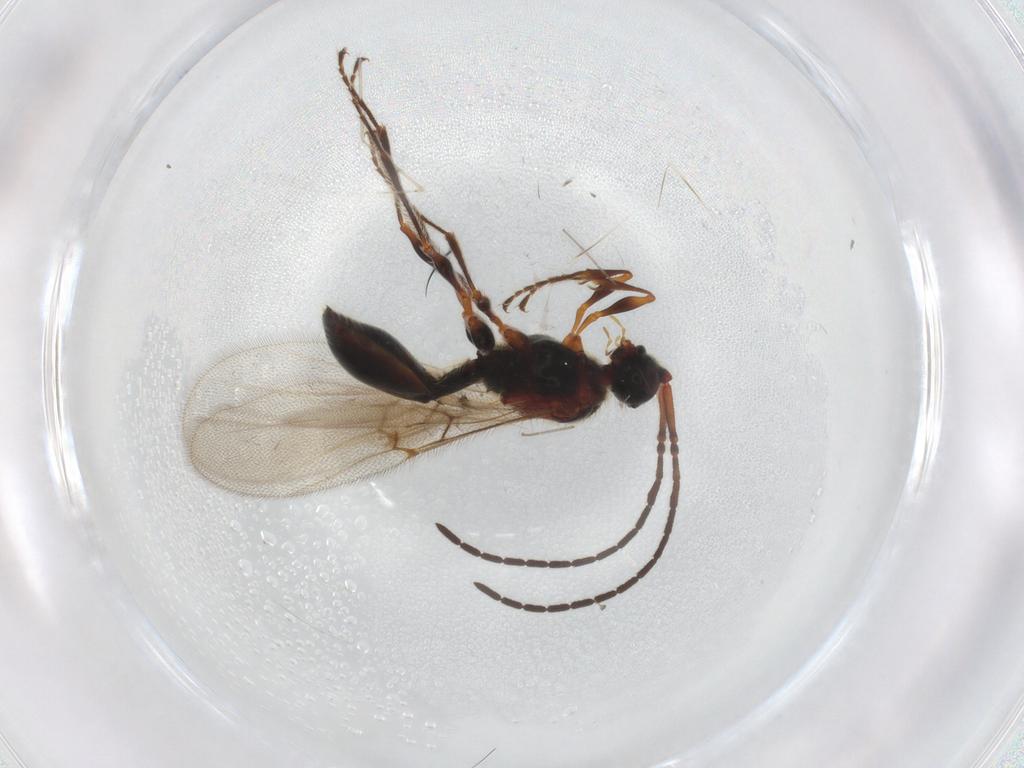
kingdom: Animalia
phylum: Arthropoda
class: Insecta
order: Hymenoptera
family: Diapriidae
